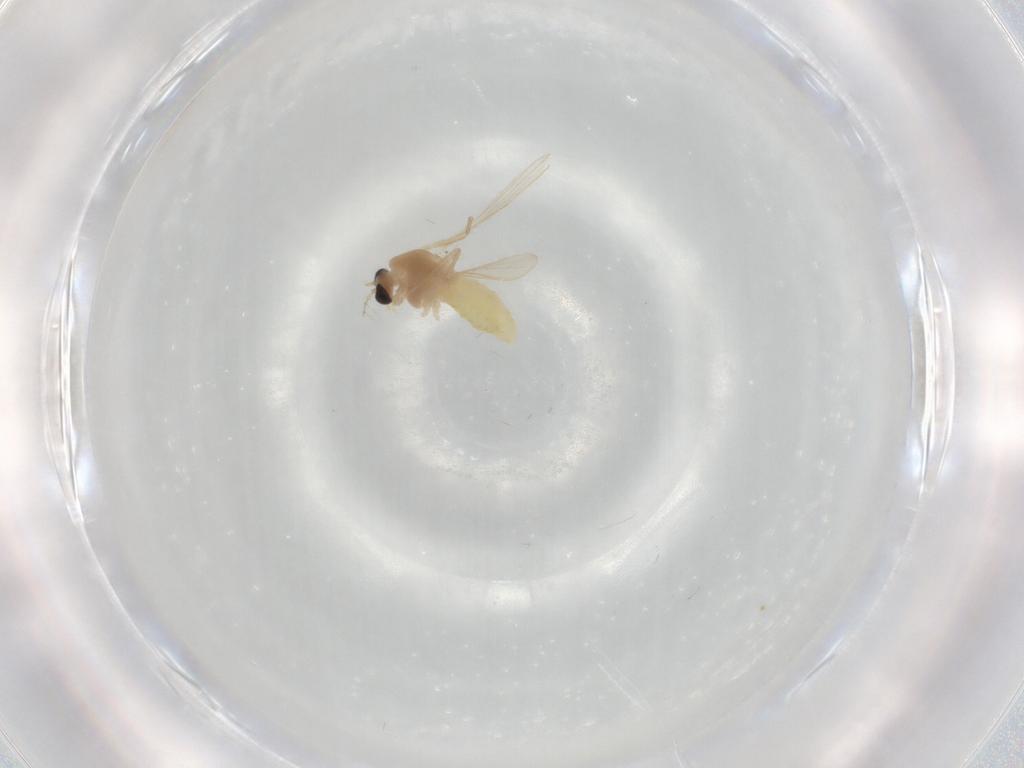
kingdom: Animalia
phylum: Arthropoda
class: Insecta
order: Diptera
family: Chironomidae
